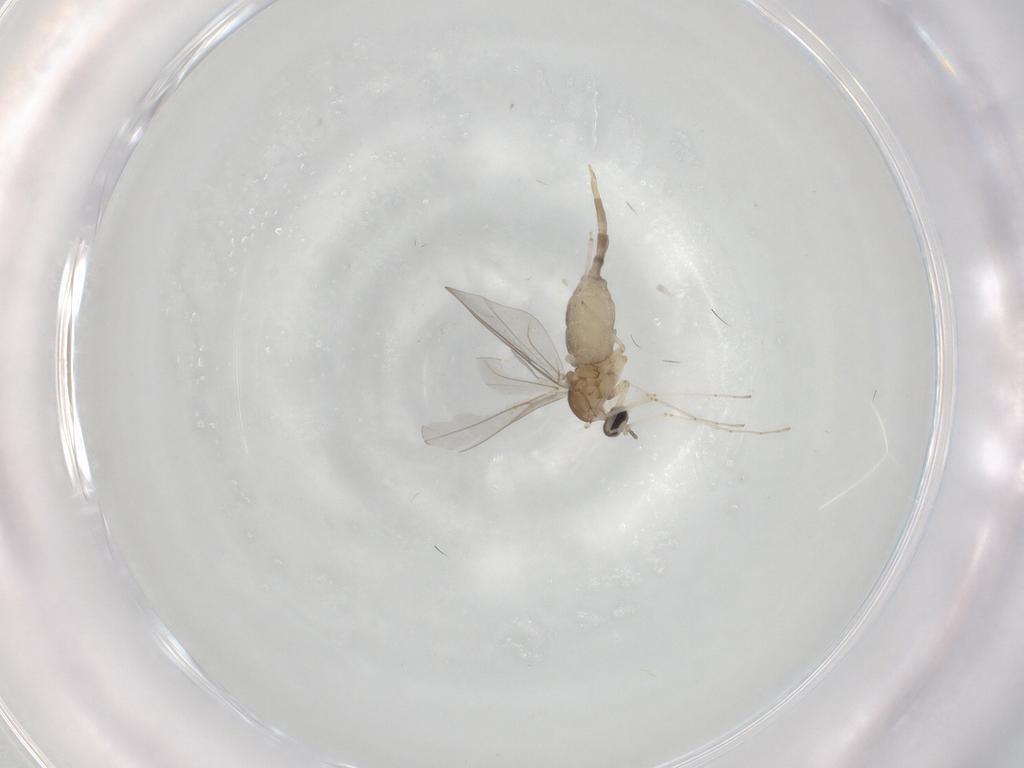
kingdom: Animalia
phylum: Arthropoda
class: Insecta
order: Diptera
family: Cecidomyiidae
